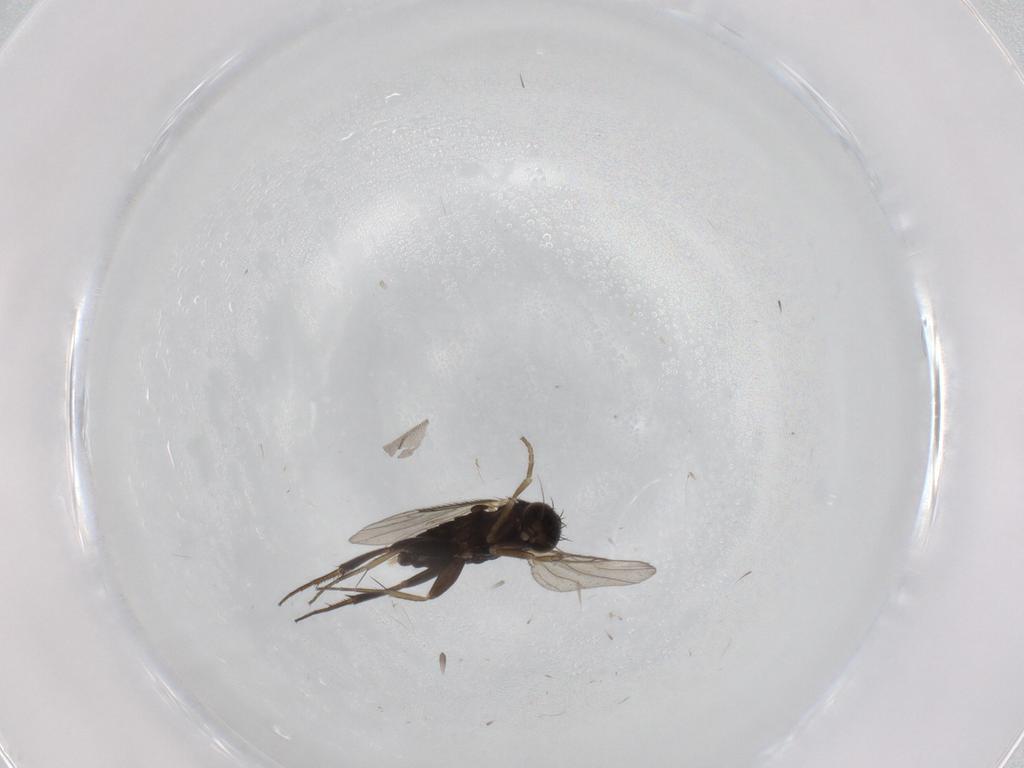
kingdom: Animalia
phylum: Arthropoda
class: Insecta
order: Diptera
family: Phoridae
